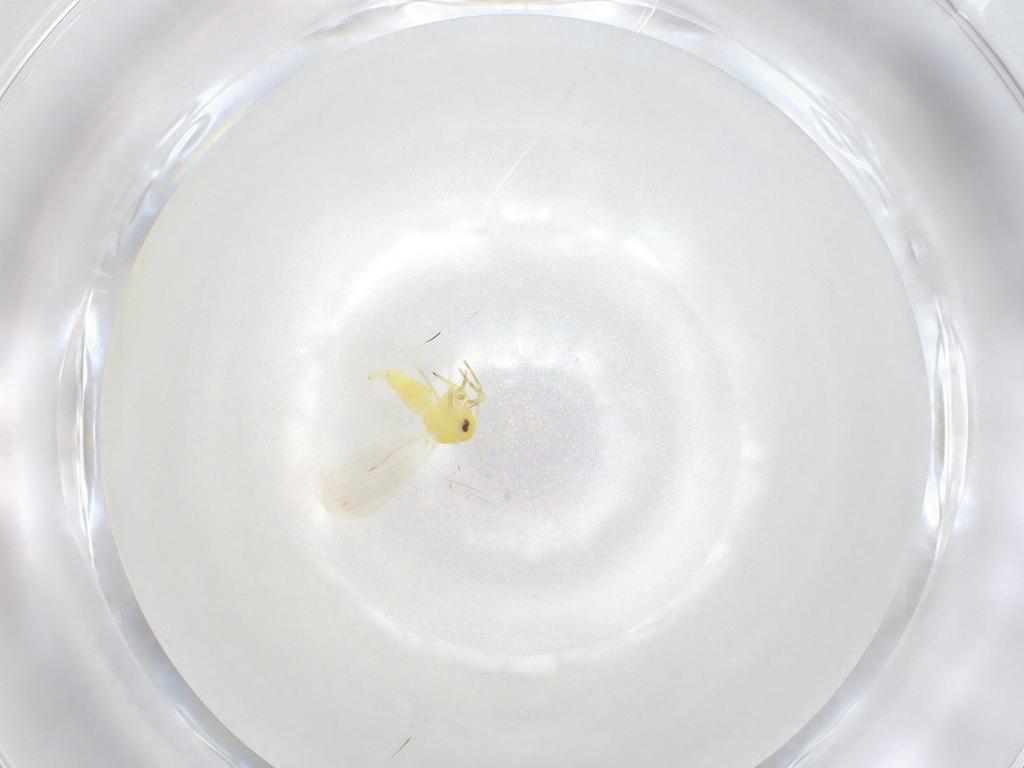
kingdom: Animalia
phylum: Arthropoda
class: Insecta
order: Hemiptera
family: Aleyrodidae
